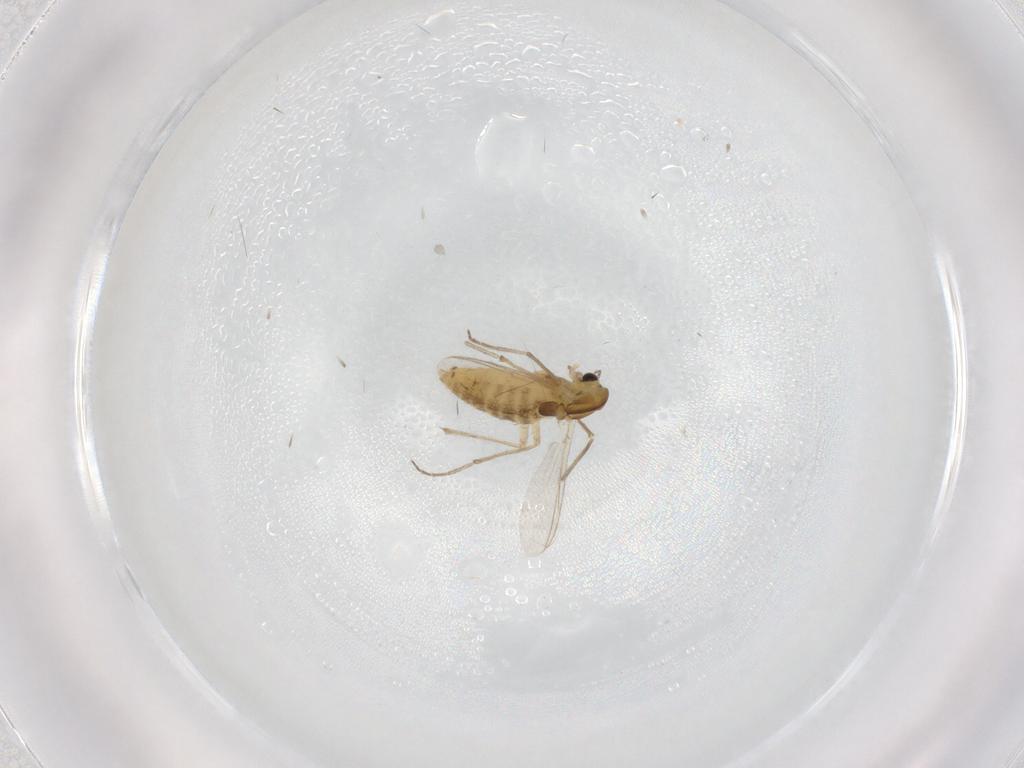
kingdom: Animalia
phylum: Arthropoda
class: Insecta
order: Diptera
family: Chironomidae
